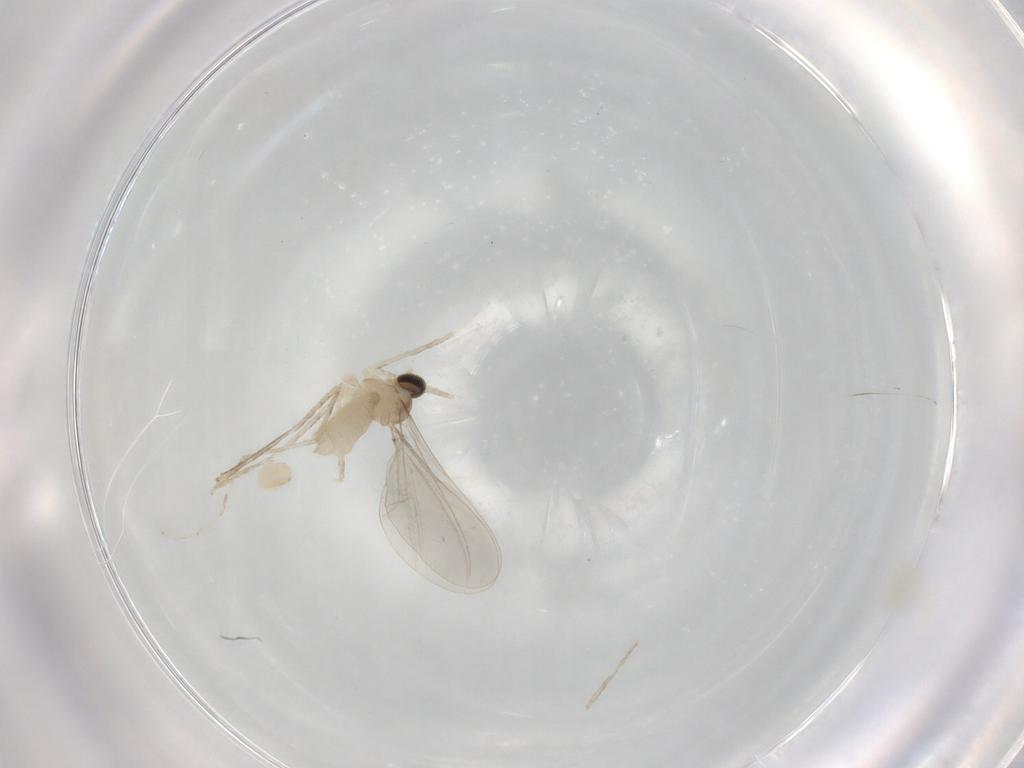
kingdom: Animalia
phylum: Arthropoda
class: Insecta
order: Diptera
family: Cecidomyiidae
